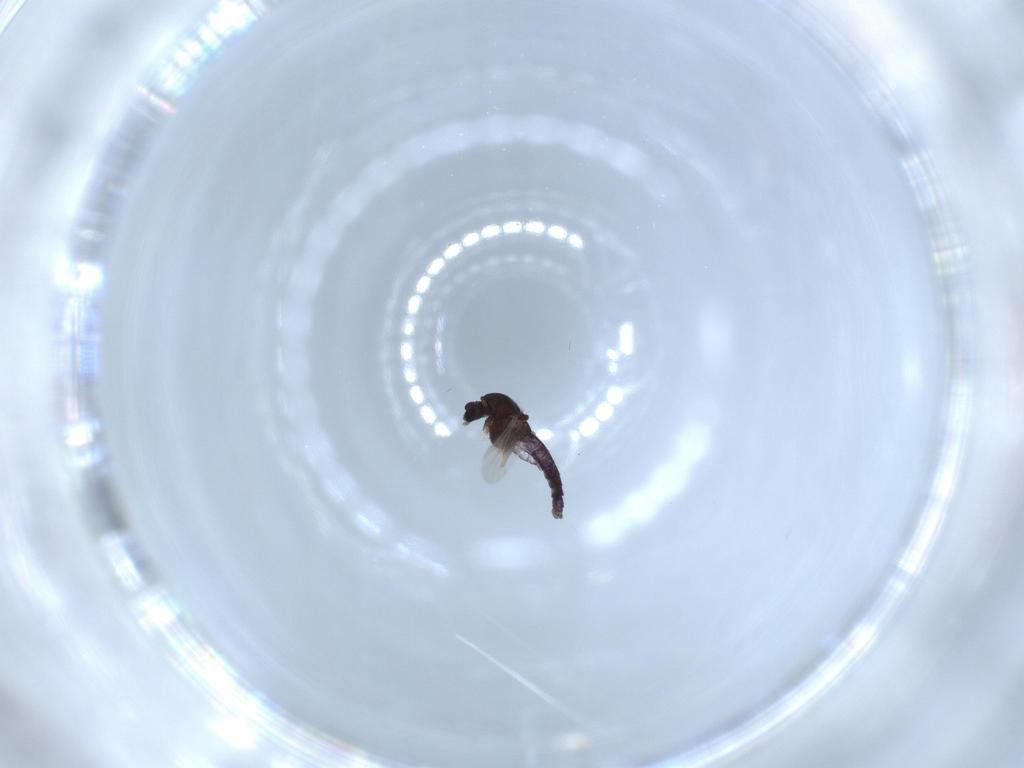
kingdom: Animalia
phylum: Arthropoda
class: Insecta
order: Diptera
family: Chironomidae
